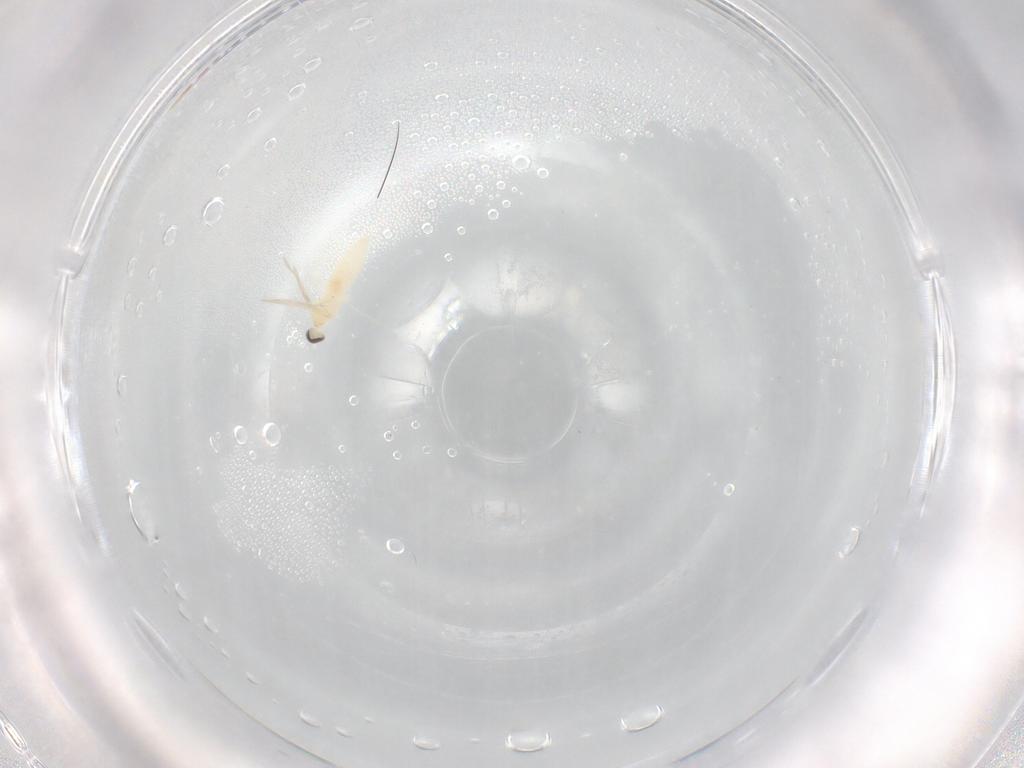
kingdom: Animalia
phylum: Arthropoda
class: Insecta
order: Diptera
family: Cecidomyiidae
